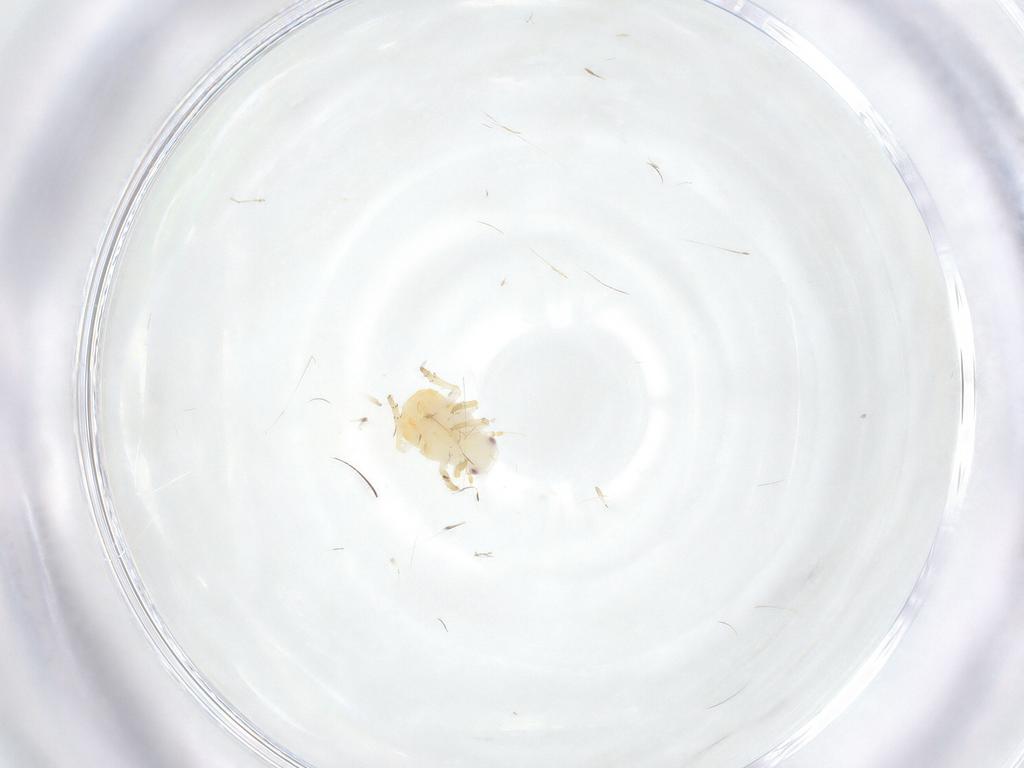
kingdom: Animalia
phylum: Arthropoda
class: Insecta
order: Hemiptera
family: Flatidae
